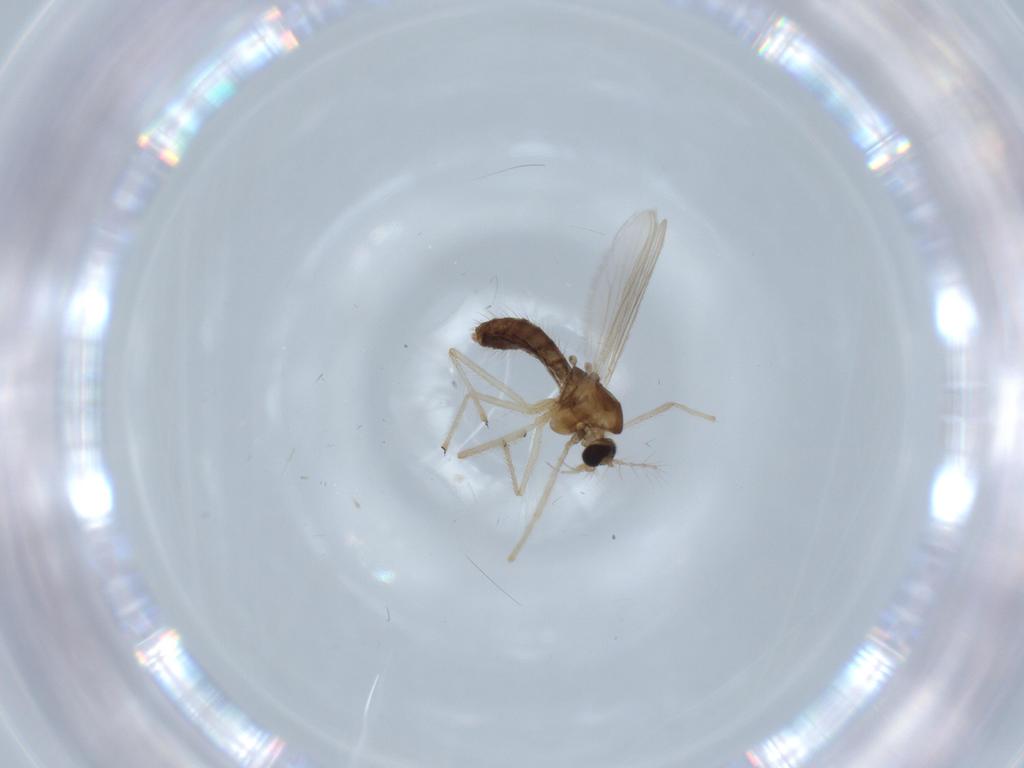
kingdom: Animalia
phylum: Arthropoda
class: Insecta
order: Diptera
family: Chironomidae
